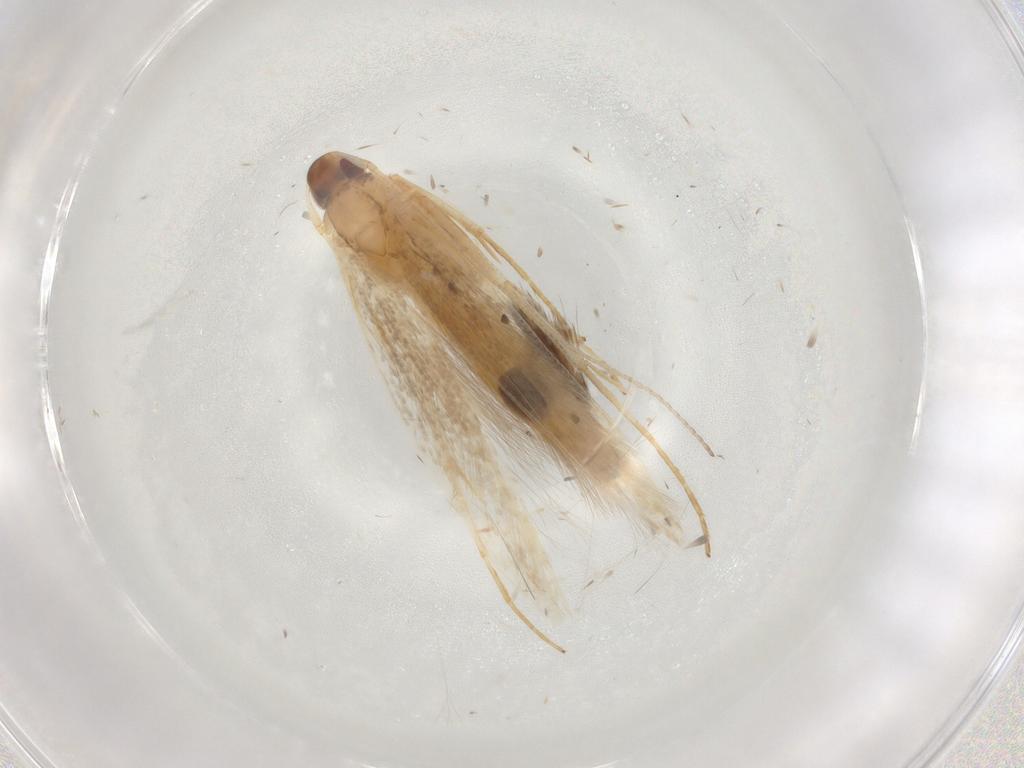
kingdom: Animalia
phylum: Arthropoda
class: Insecta
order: Lepidoptera
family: Cosmopterigidae
